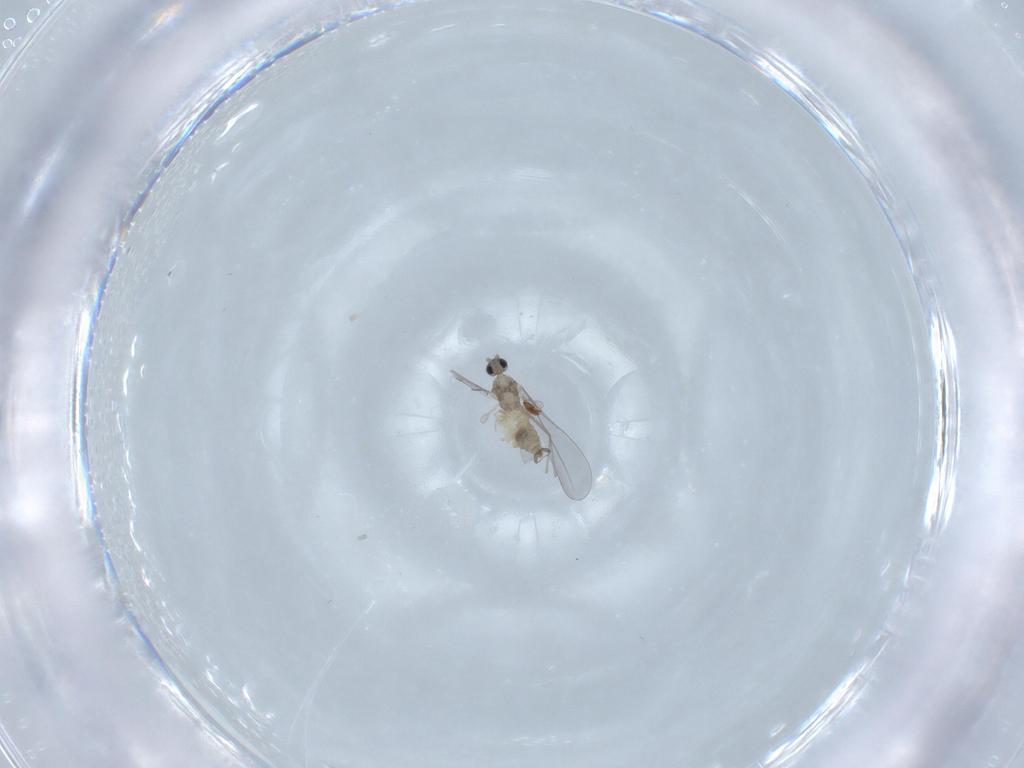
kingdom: Animalia
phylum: Arthropoda
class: Insecta
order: Diptera
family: Cecidomyiidae
